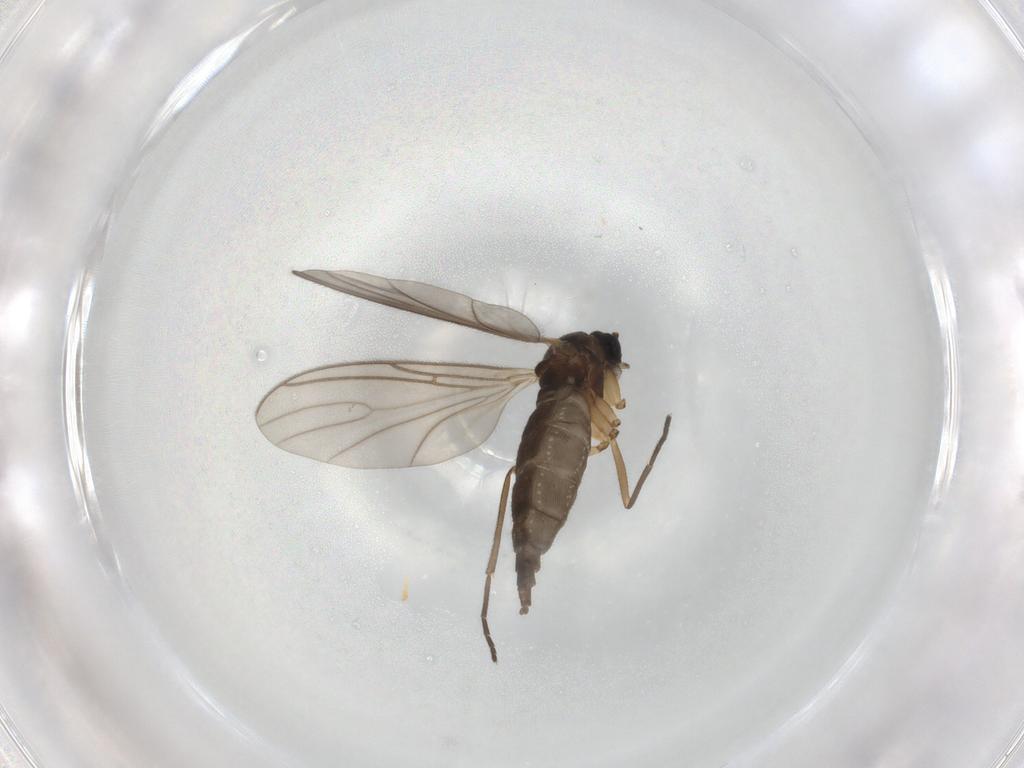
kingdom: Animalia
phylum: Arthropoda
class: Insecta
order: Diptera
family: Sciaridae
